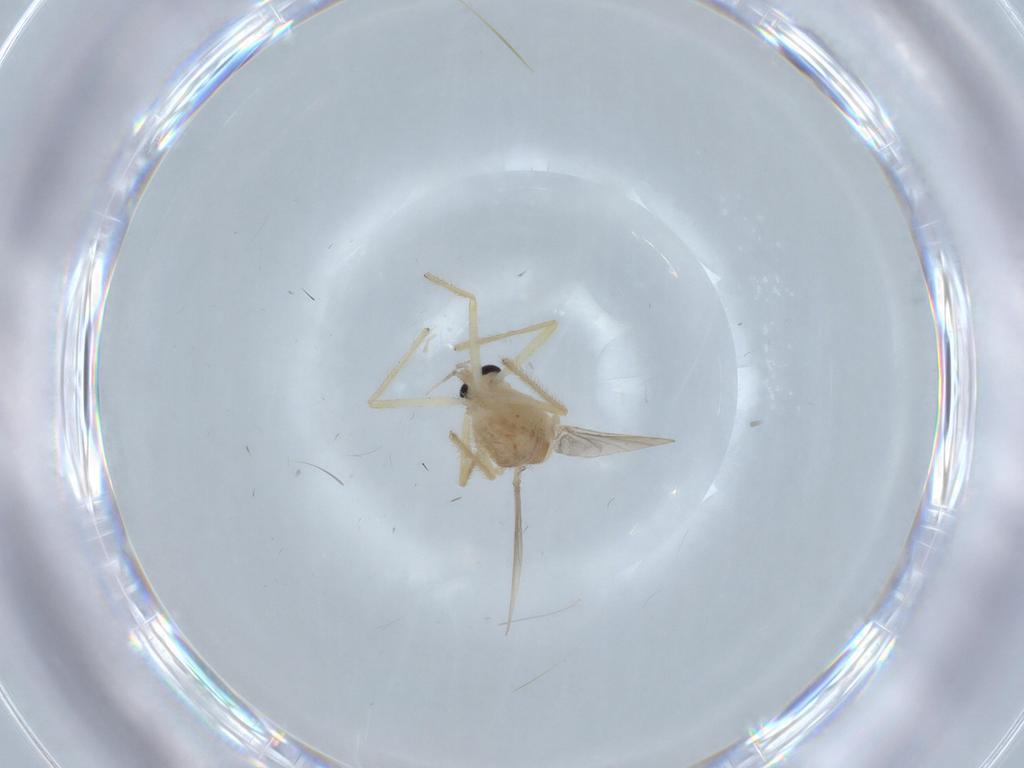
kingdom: Animalia
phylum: Arthropoda
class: Insecta
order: Diptera
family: Chironomidae
